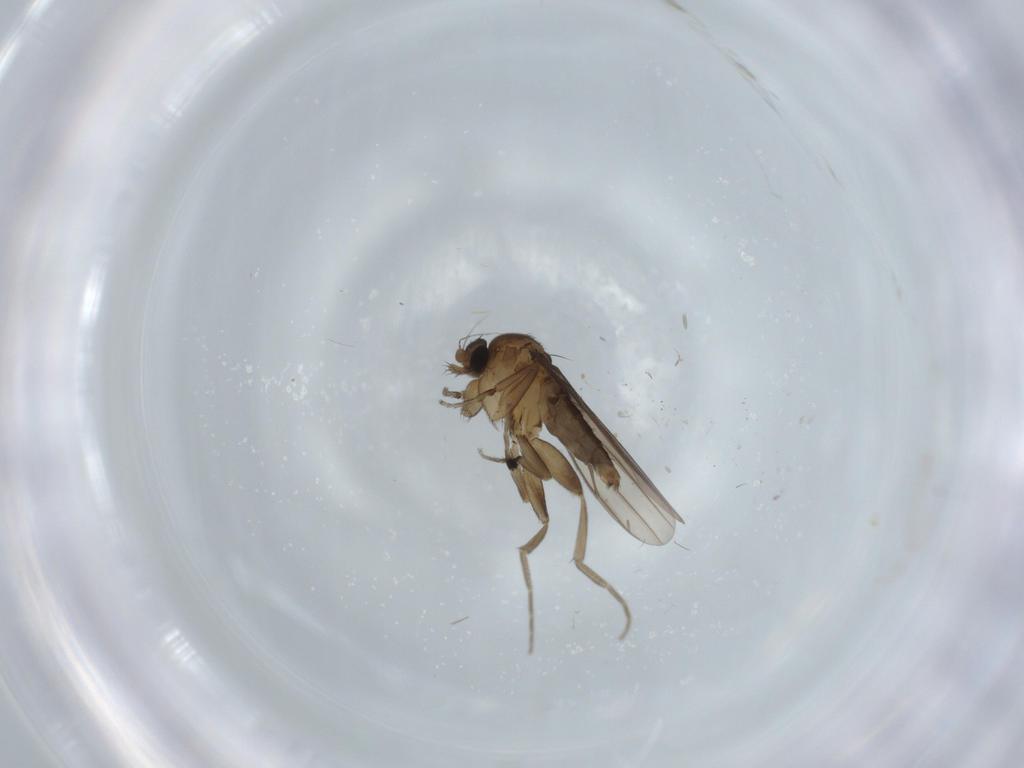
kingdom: Animalia
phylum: Arthropoda
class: Insecta
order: Diptera
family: Phoridae
